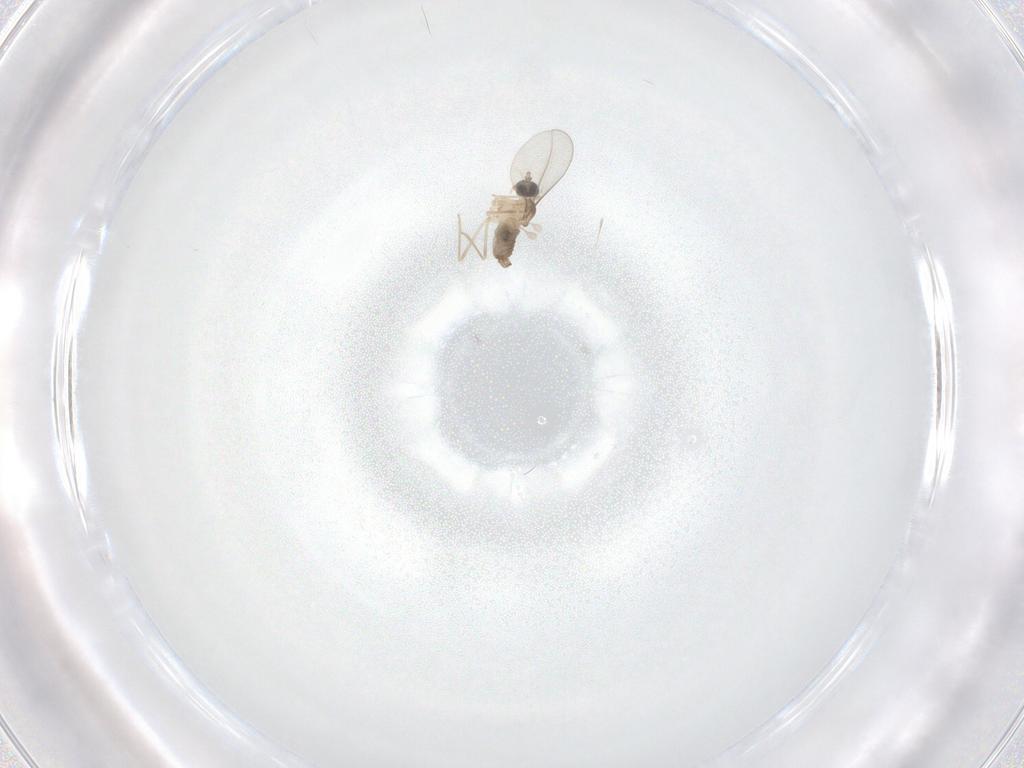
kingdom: Animalia
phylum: Arthropoda
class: Insecta
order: Diptera
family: Cecidomyiidae
